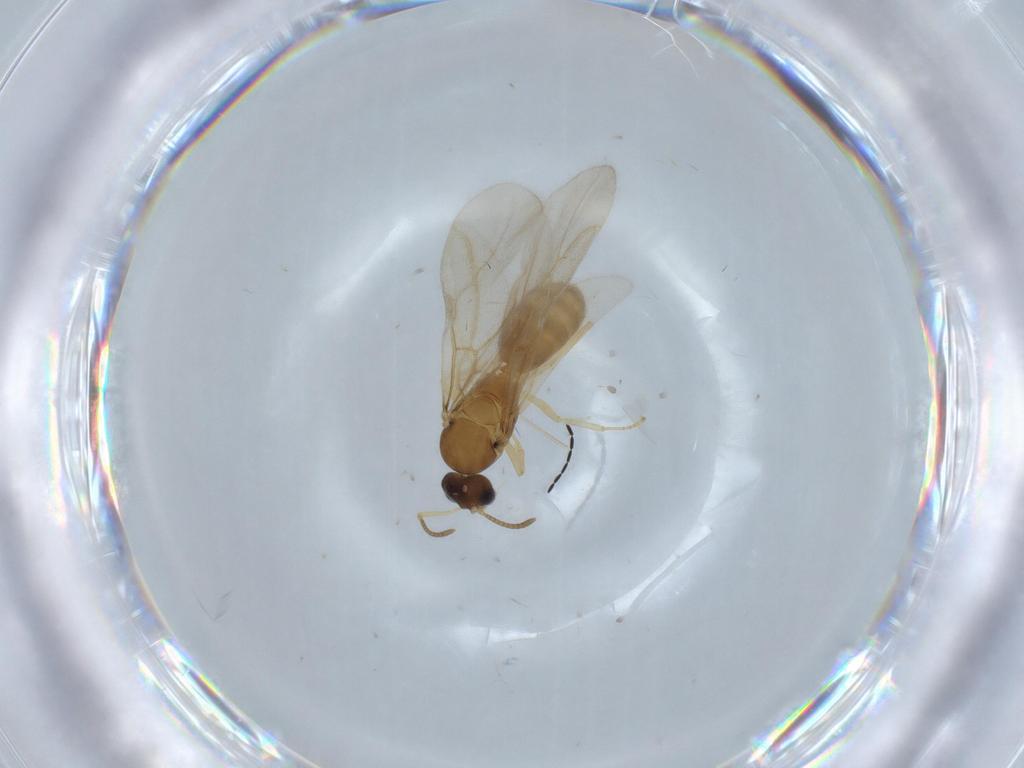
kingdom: Animalia
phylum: Arthropoda
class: Insecta
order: Hymenoptera
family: Formicidae
